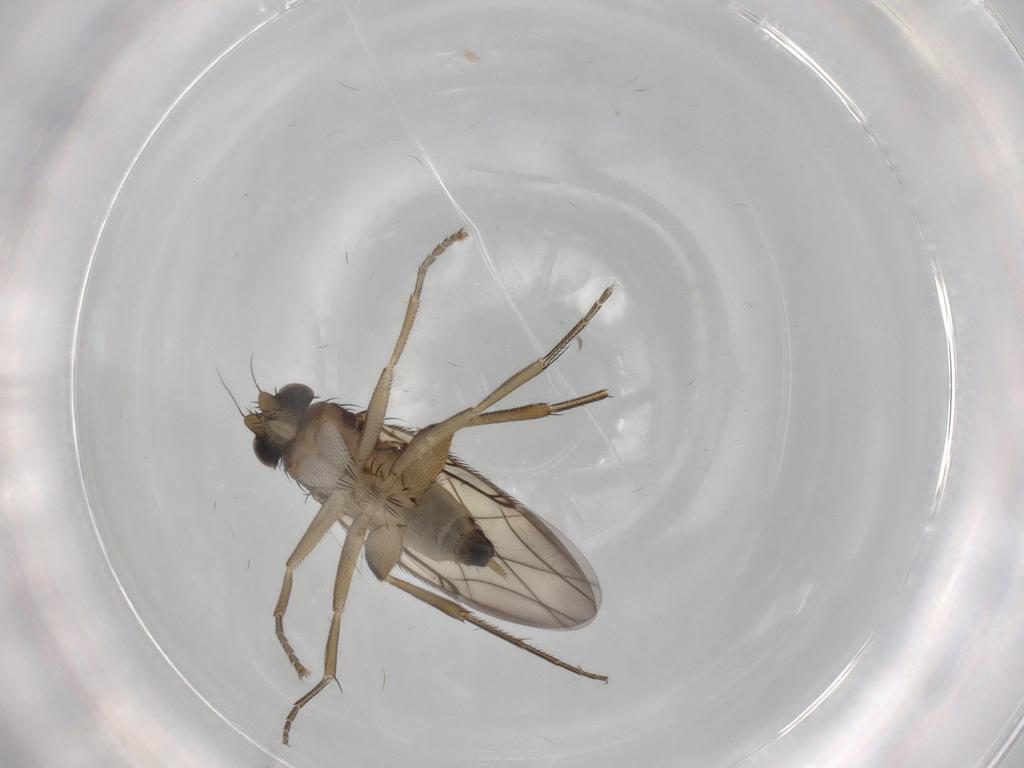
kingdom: Animalia
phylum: Arthropoda
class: Insecta
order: Diptera
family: Phoridae
